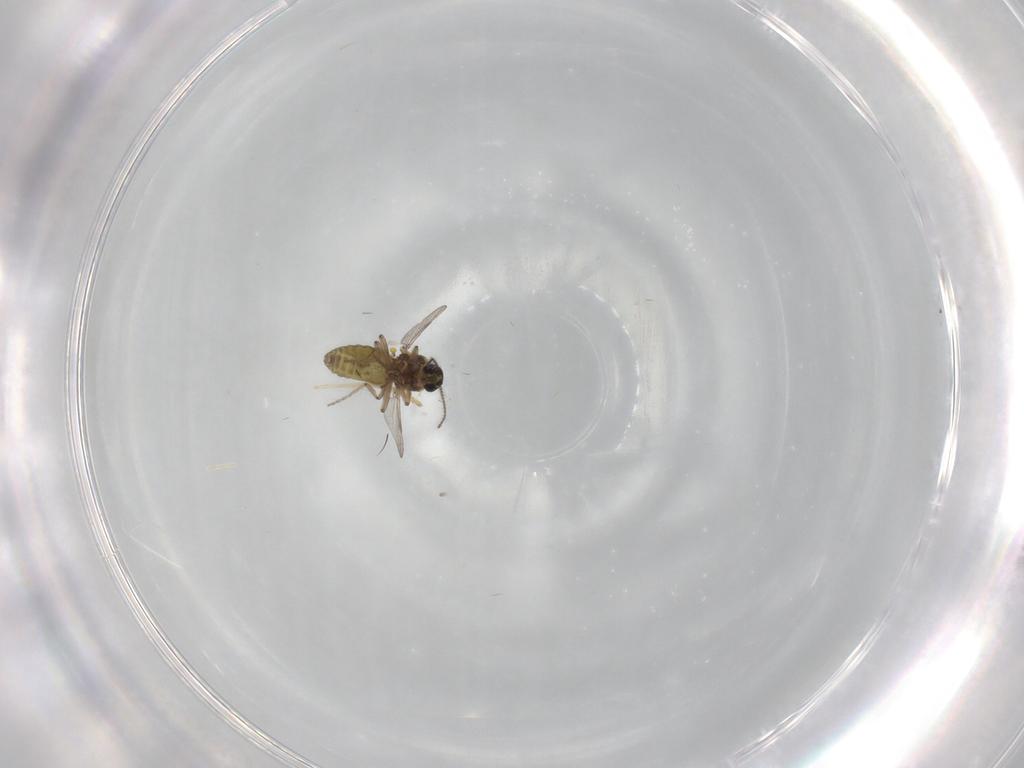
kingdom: Animalia
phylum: Arthropoda
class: Insecta
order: Diptera
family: Ceratopogonidae
